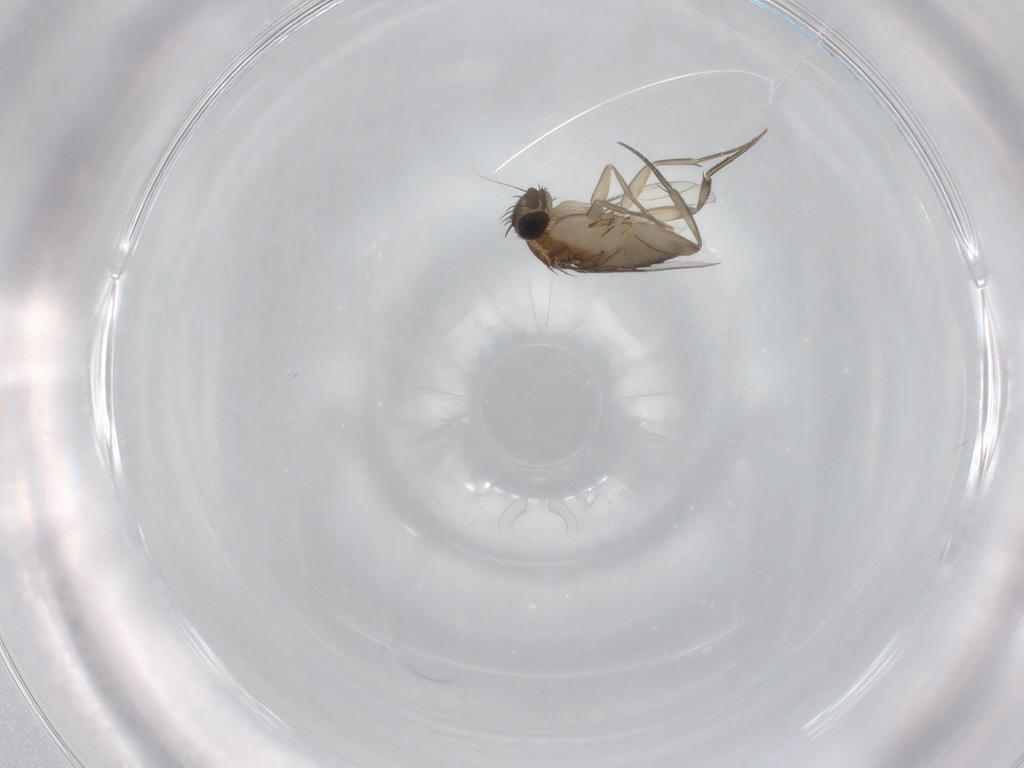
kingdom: Animalia
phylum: Arthropoda
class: Insecta
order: Diptera
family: Phoridae
